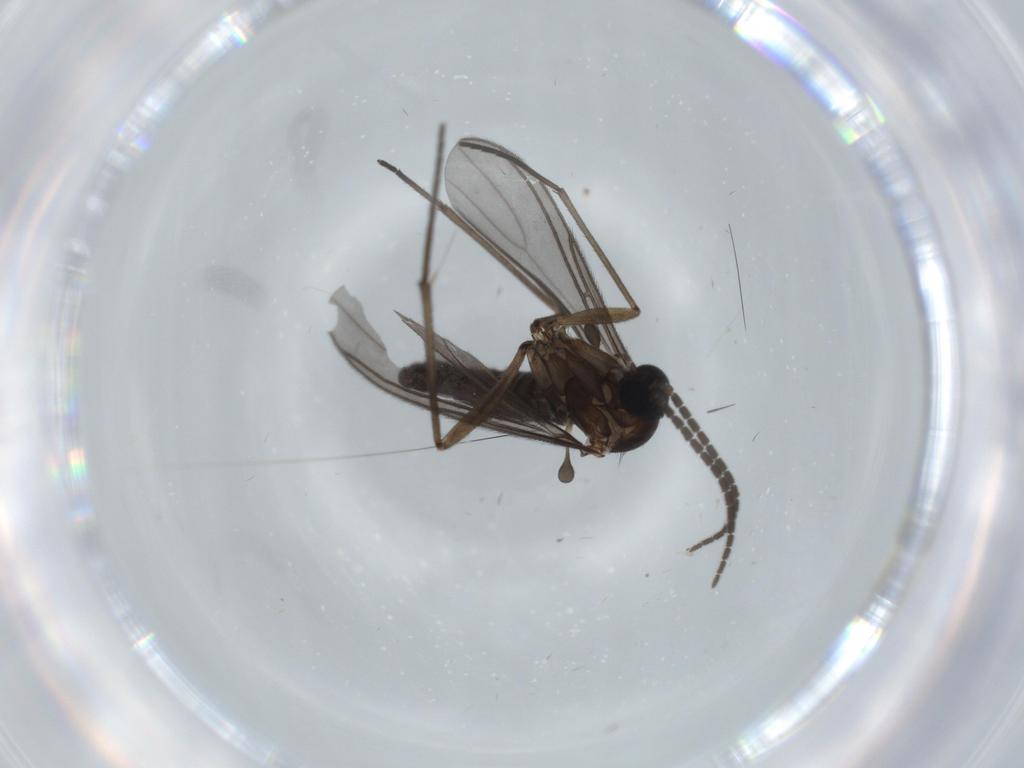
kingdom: Animalia
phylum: Arthropoda
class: Insecta
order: Diptera
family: Sciaridae
